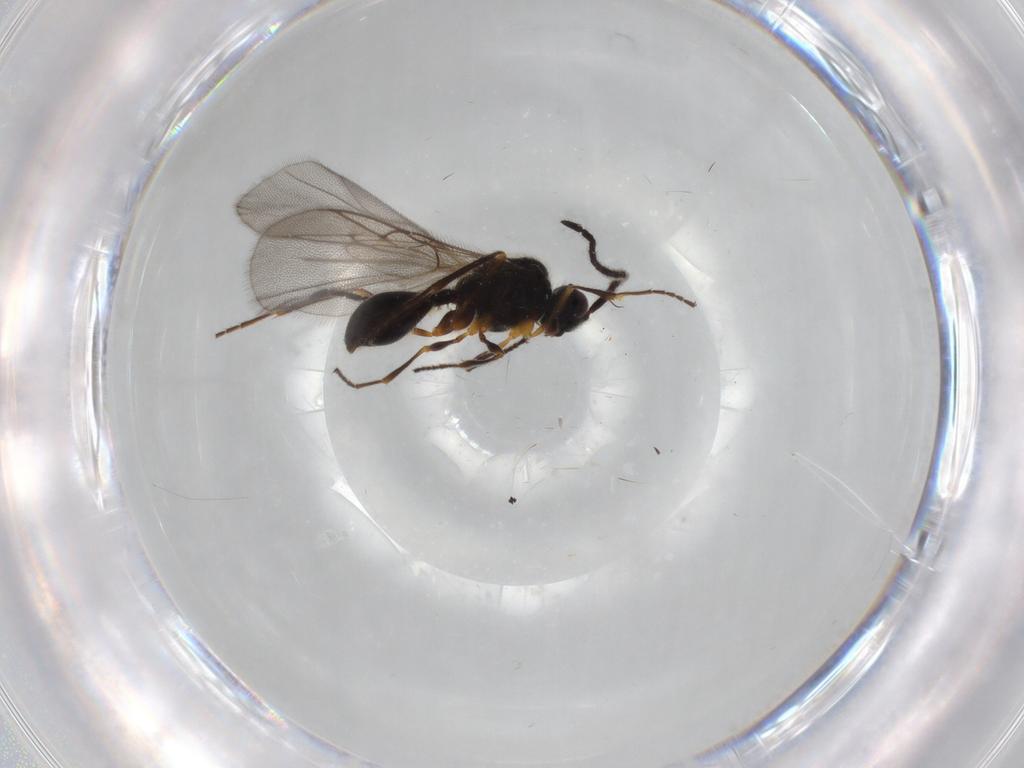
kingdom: Animalia
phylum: Arthropoda
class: Insecta
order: Hymenoptera
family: Diapriidae
